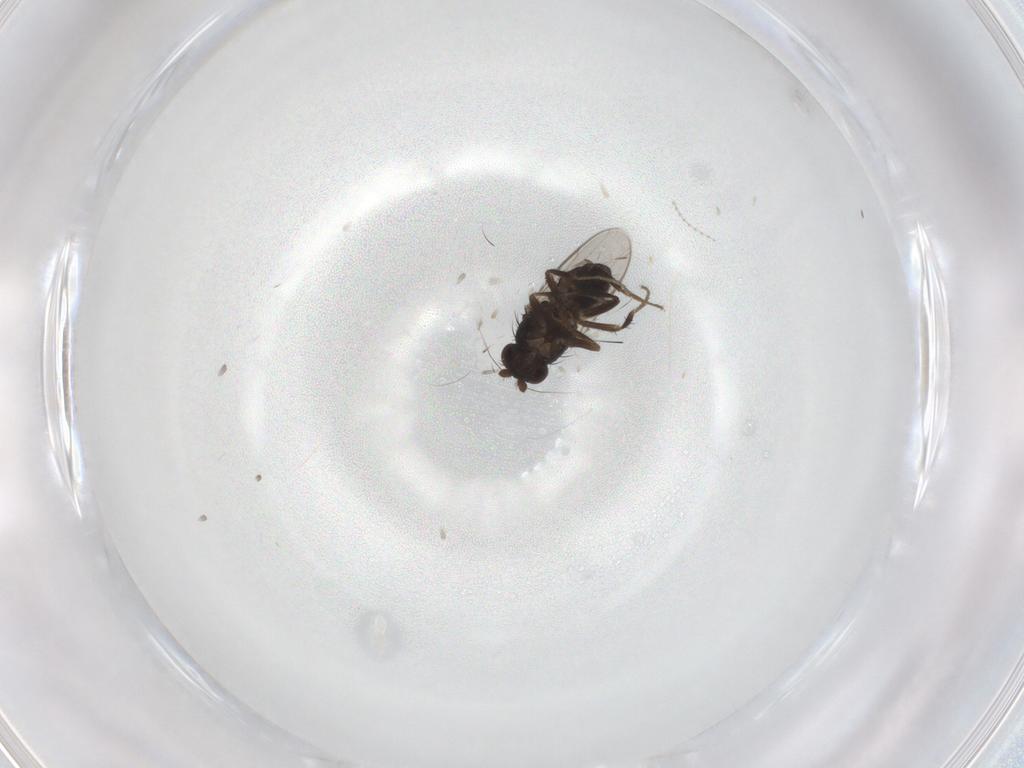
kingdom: Animalia
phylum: Arthropoda
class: Insecta
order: Diptera
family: Sphaeroceridae
